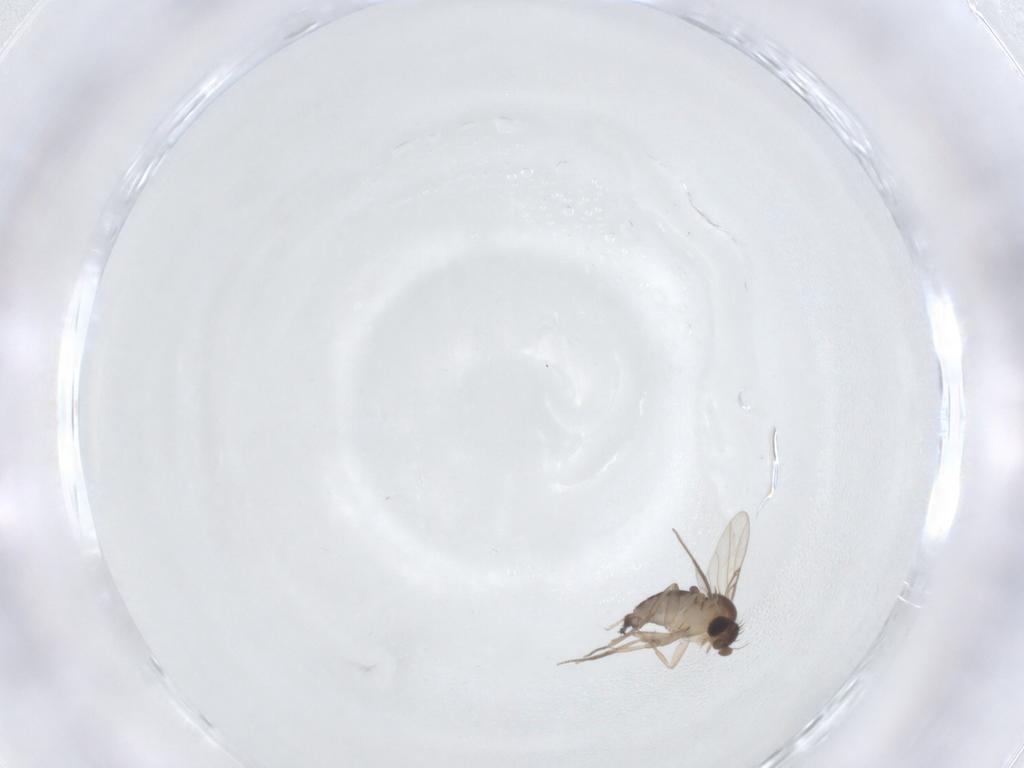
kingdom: Animalia
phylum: Arthropoda
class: Insecta
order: Diptera
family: Phoridae
